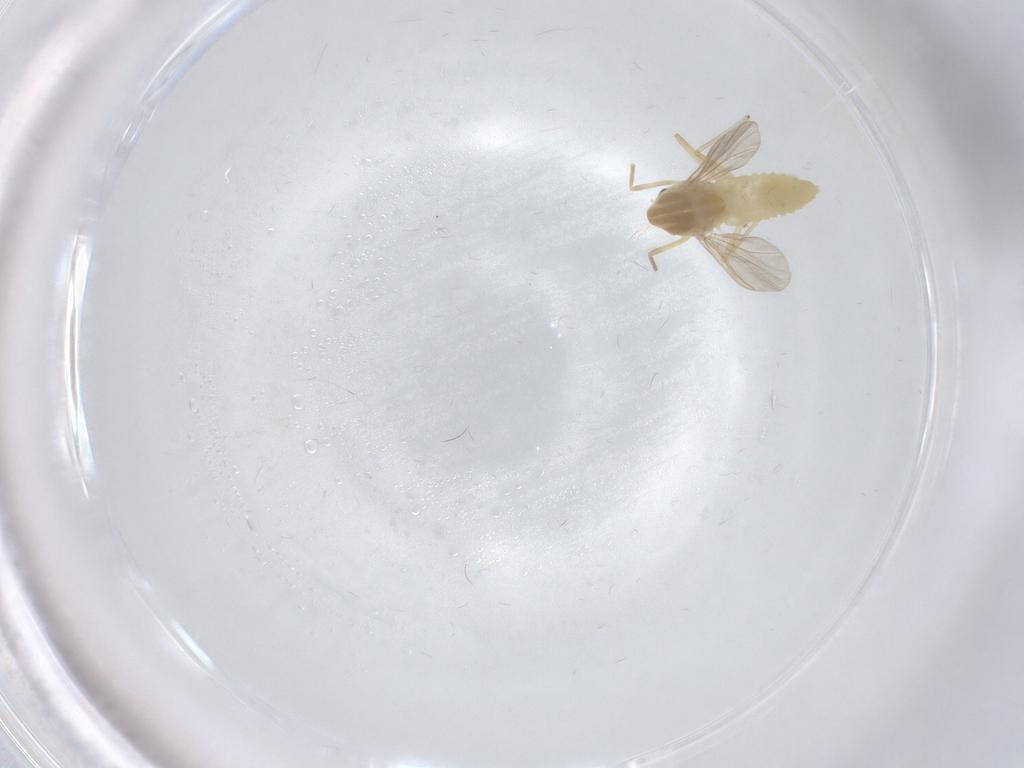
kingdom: Animalia
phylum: Arthropoda
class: Insecta
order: Diptera
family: Chironomidae
